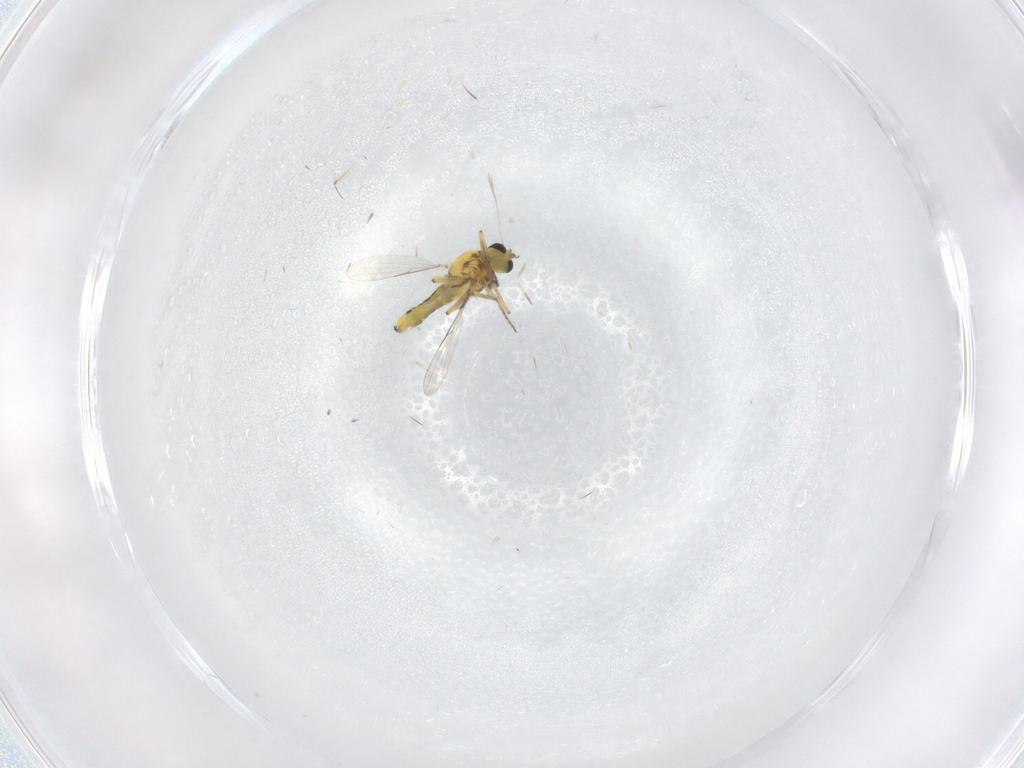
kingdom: Animalia
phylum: Arthropoda
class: Insecta
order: Diptera
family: Ceratopogonidae
